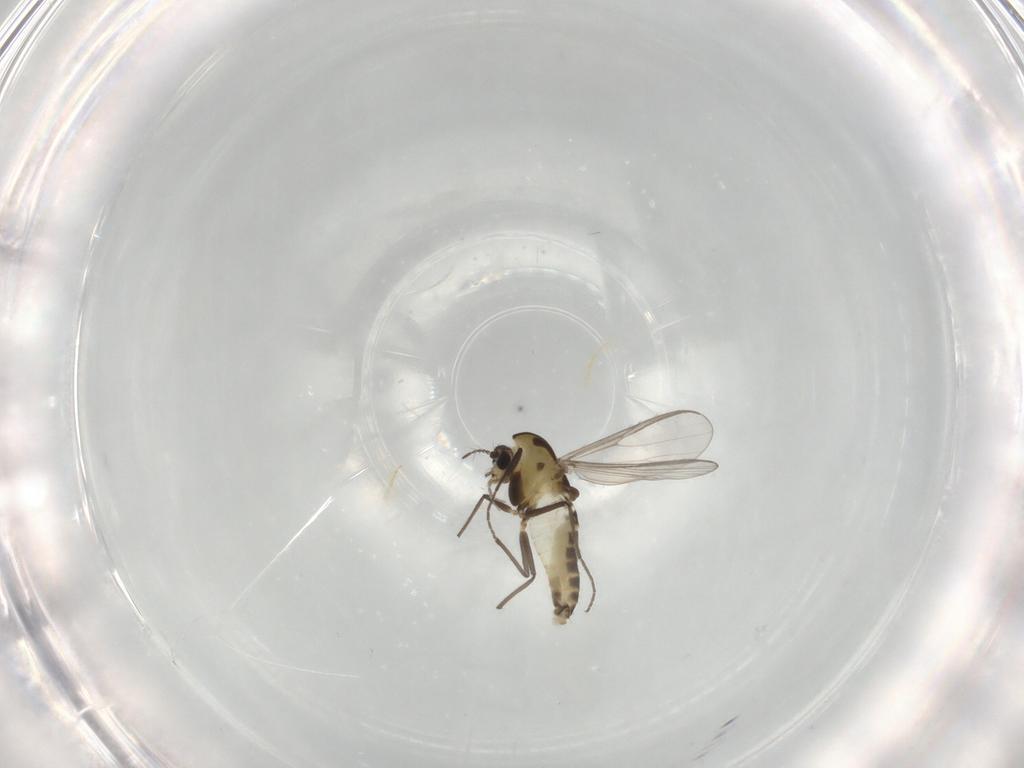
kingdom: Animalia
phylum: Arthropoda
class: Insecta
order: Diptera
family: Chironomidae
